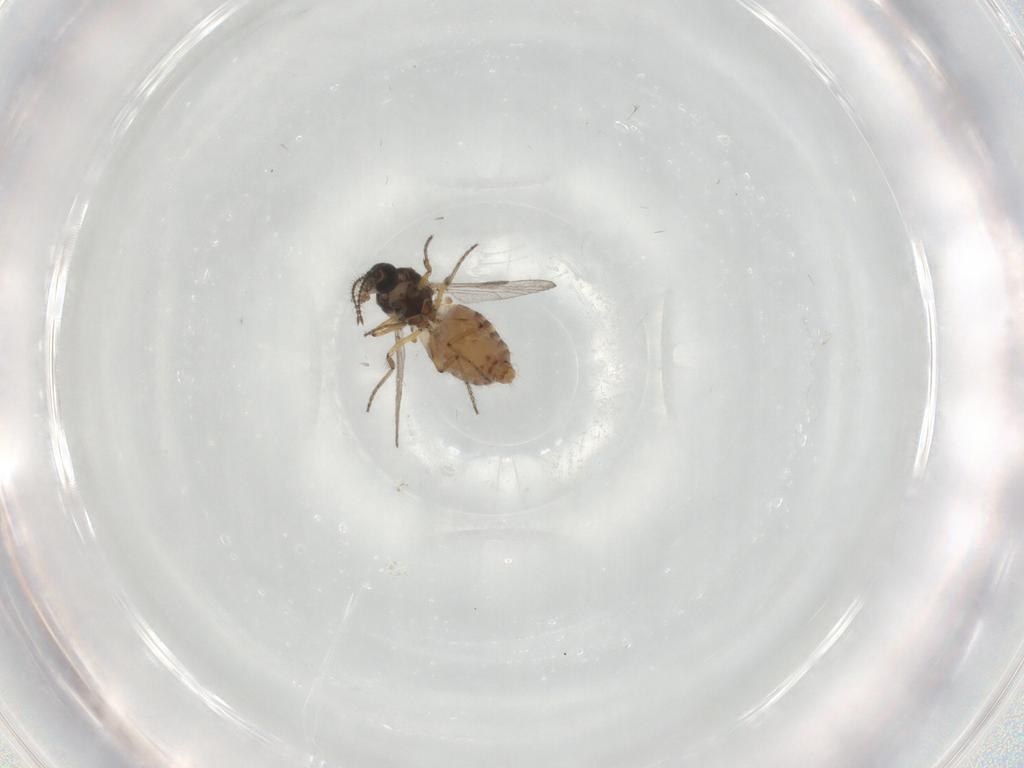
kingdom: Animalia
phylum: Arthropoda
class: Insecta
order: Diptera
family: Ceratopogonidae
